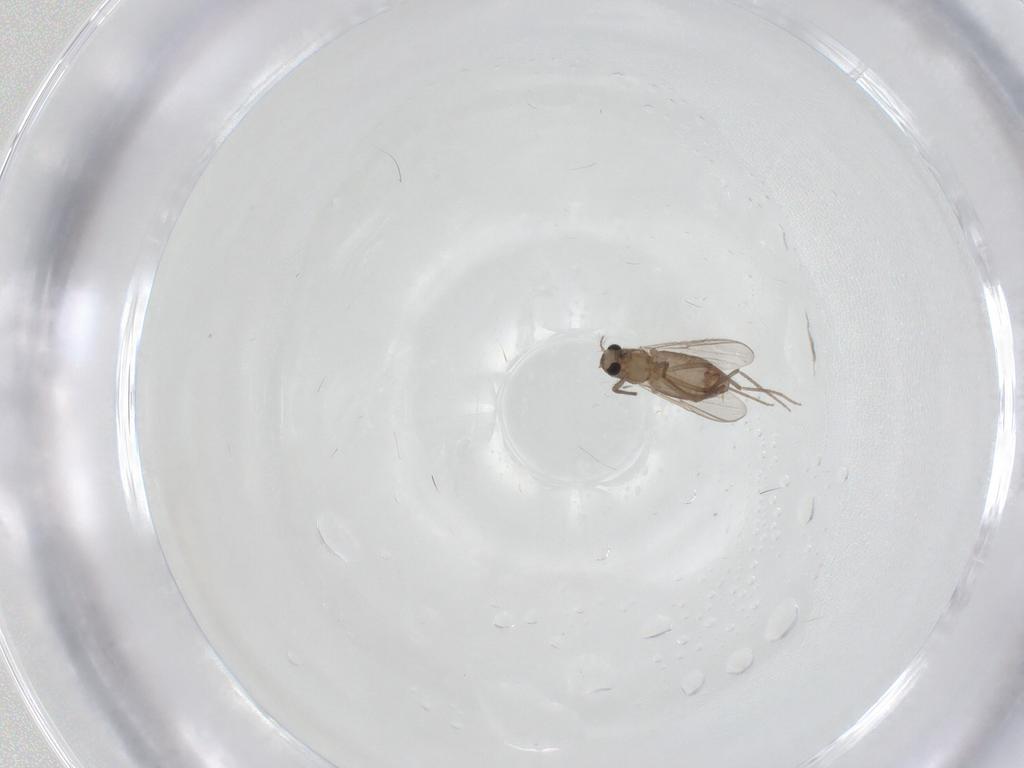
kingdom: Animalia
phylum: Arthropoda
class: Insecta
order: Diptera
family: Chironomidae
